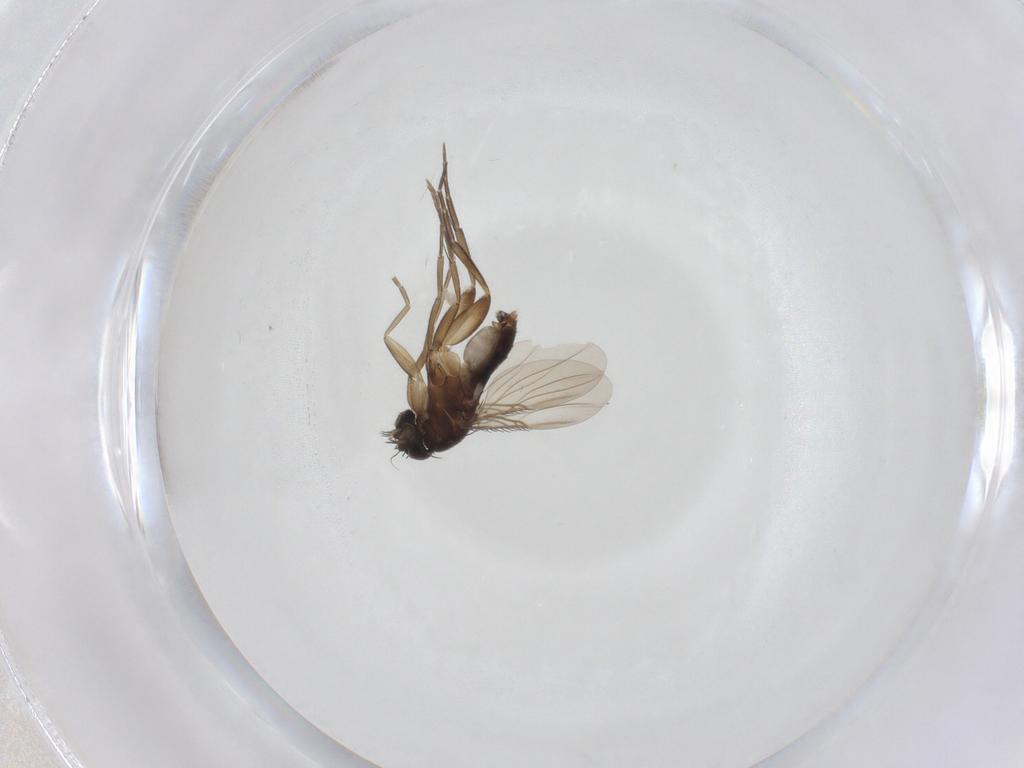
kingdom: Animalia
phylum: Arthropoda
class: Insecta
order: Diptera
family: Phoridae
